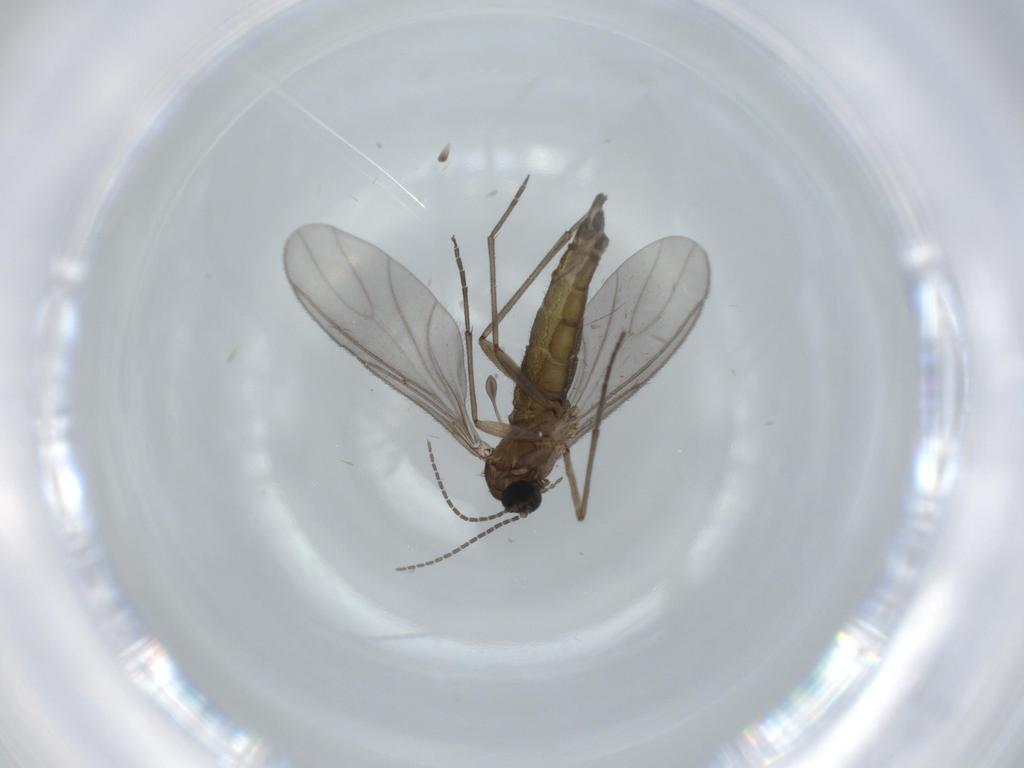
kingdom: Animalia
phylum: Arthropoda
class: Insecta
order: Diptera
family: Sciaridae
